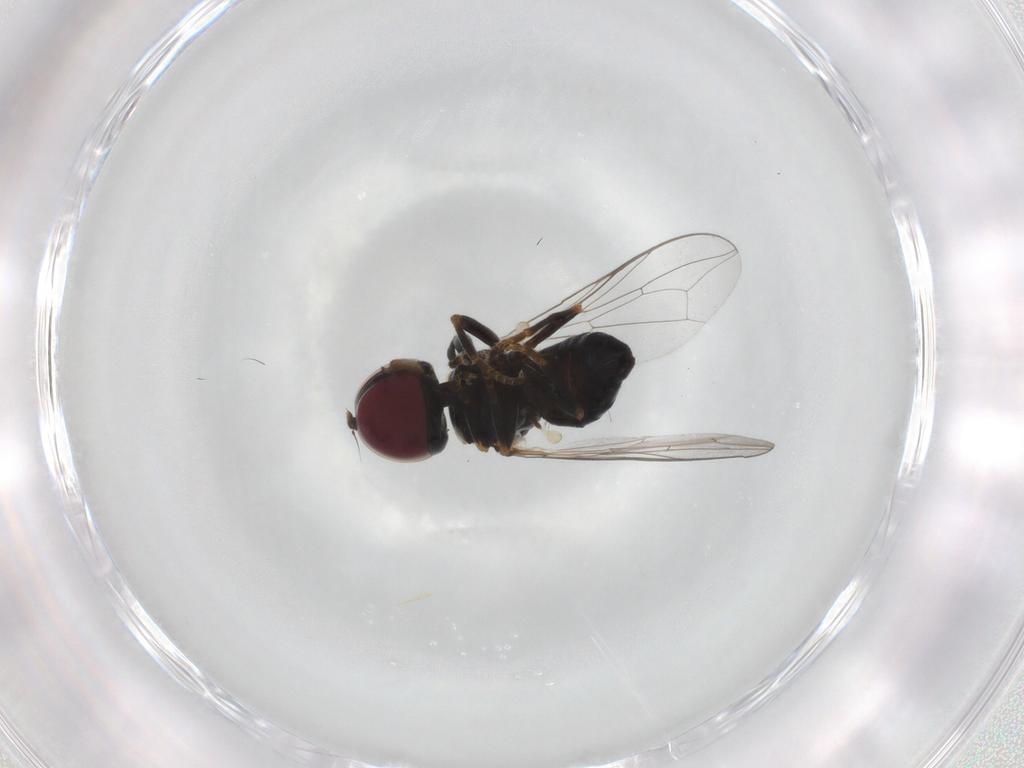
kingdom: Animalia
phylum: Arthropoda
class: Insecta
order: Diptera
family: Pipunculidae
